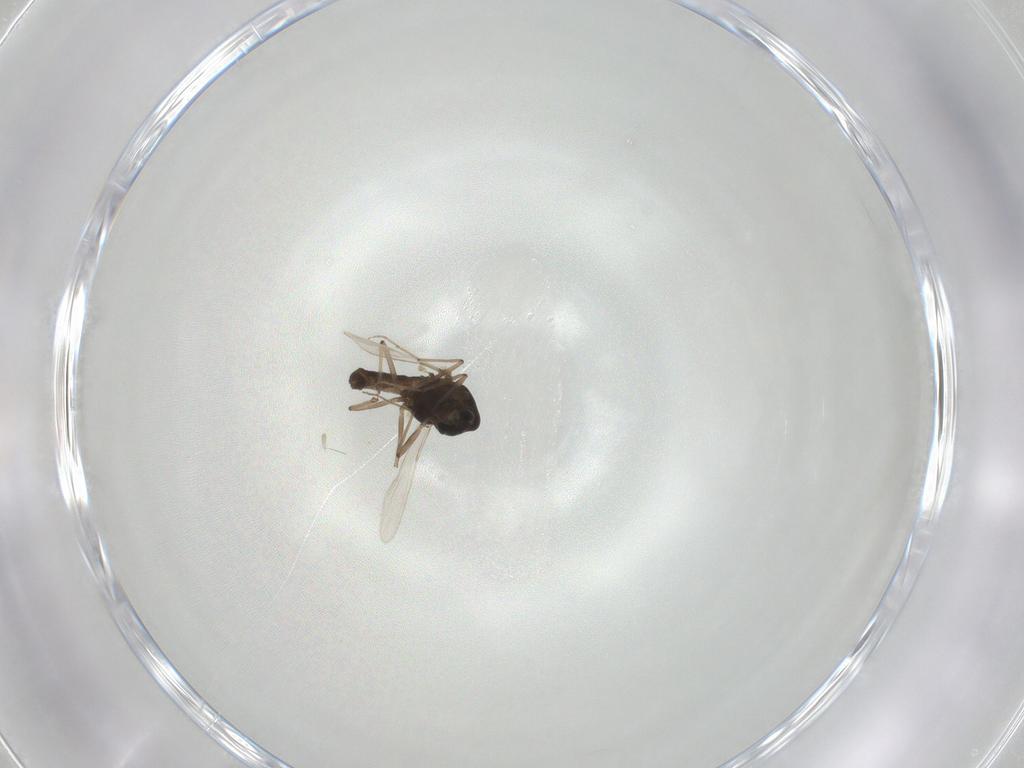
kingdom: Animalia
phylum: Arthropoda
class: Insecta
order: Diptera
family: Chironomidae
